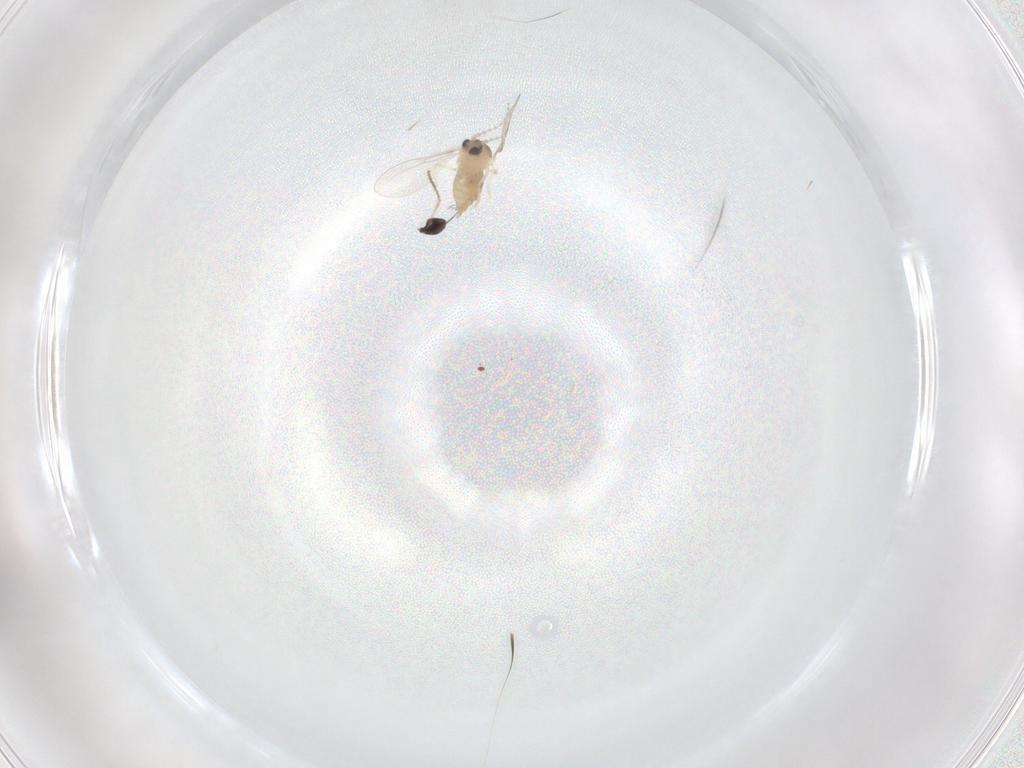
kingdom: Animalia
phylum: Arthropoda
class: Insecta
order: Diptera
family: Cecidomyiidae
